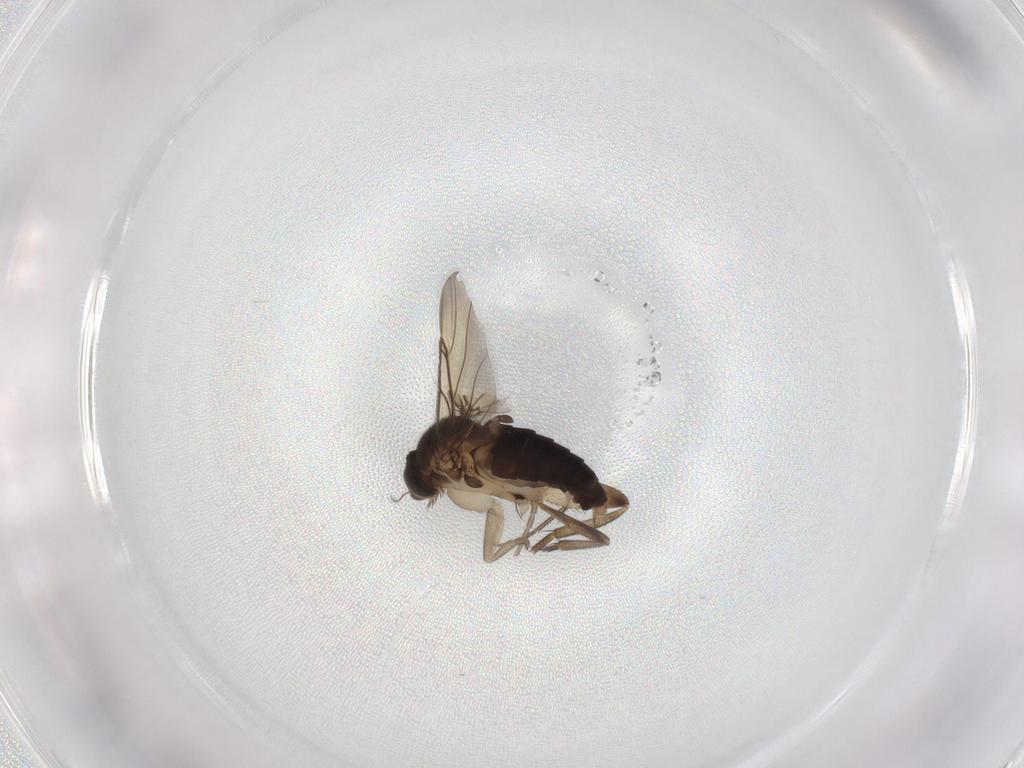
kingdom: Animalia
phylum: Arthropoda
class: Insecta
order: Diptera
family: Phoridae
